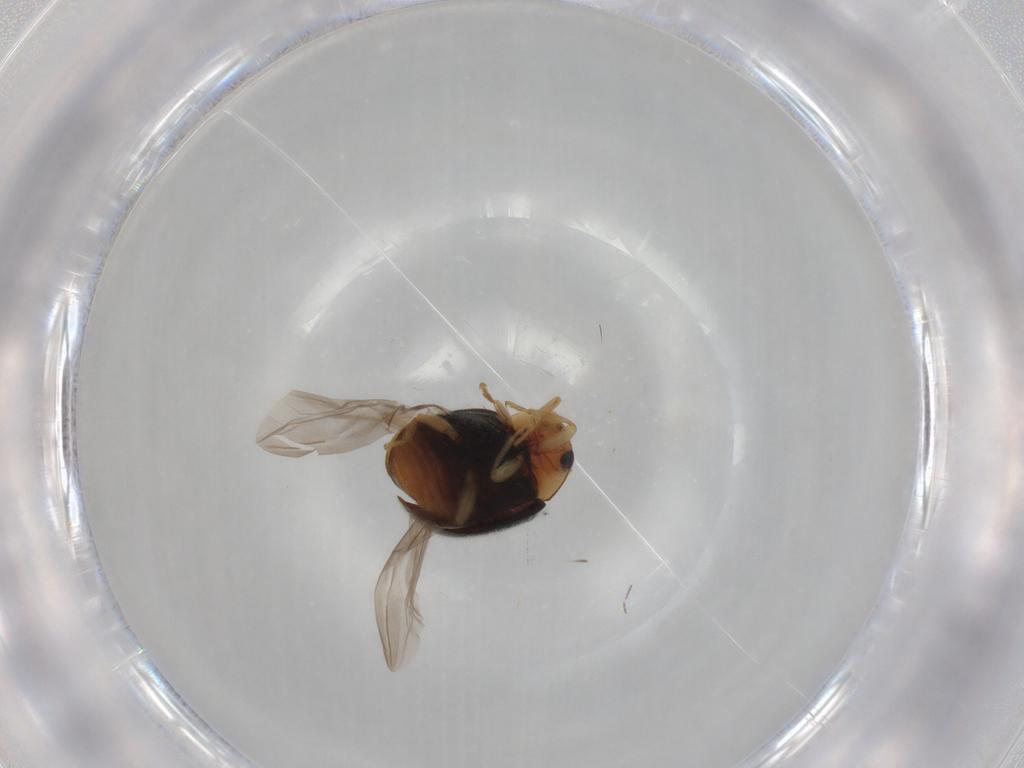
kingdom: Animalia
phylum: Arthropoda
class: Insecta
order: Coleoptera
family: Coccinellidae
